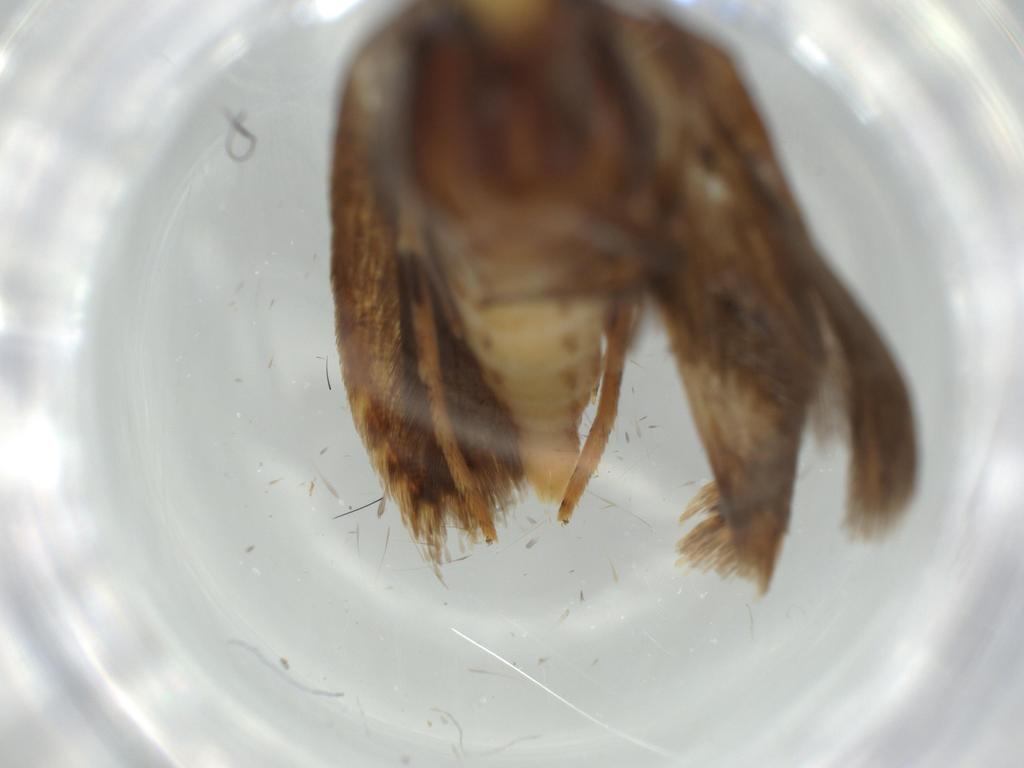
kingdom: Animalia
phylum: Arthropoda
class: Insecta
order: Lepidoptera
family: Gelechiidae
